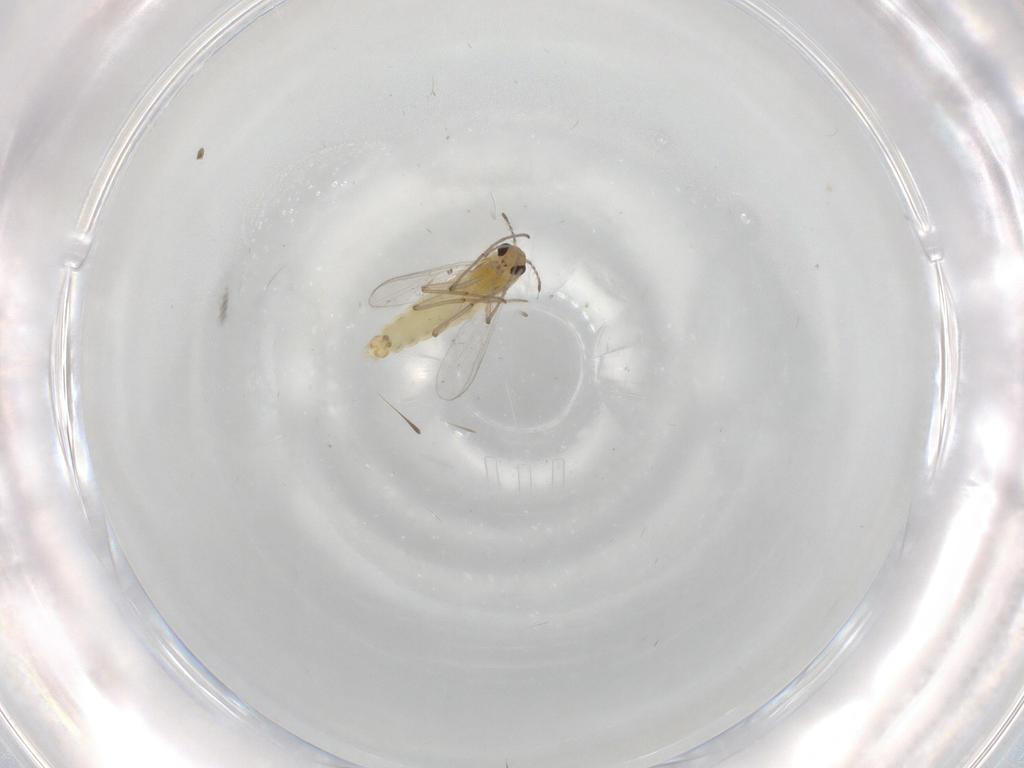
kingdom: Animalia
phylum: Arthropoda
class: Insecta
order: Diptera
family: Chironomidae
